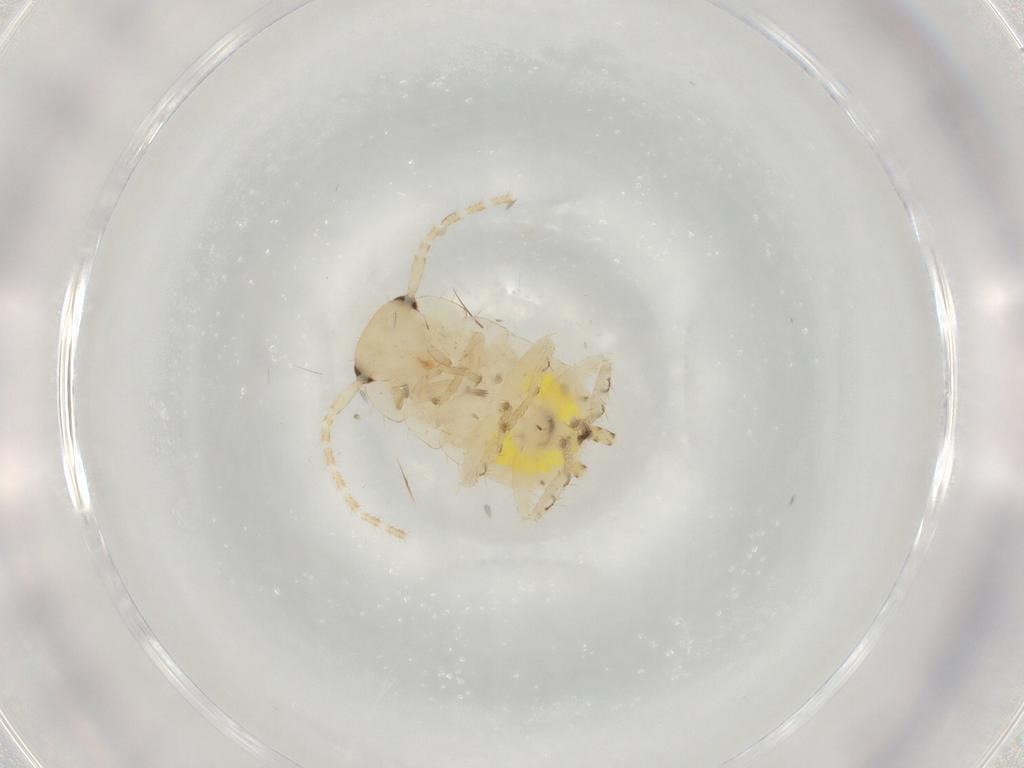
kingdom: Animalia
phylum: Arthropoda
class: Insecta
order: Blattodea
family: Ectobiidae
